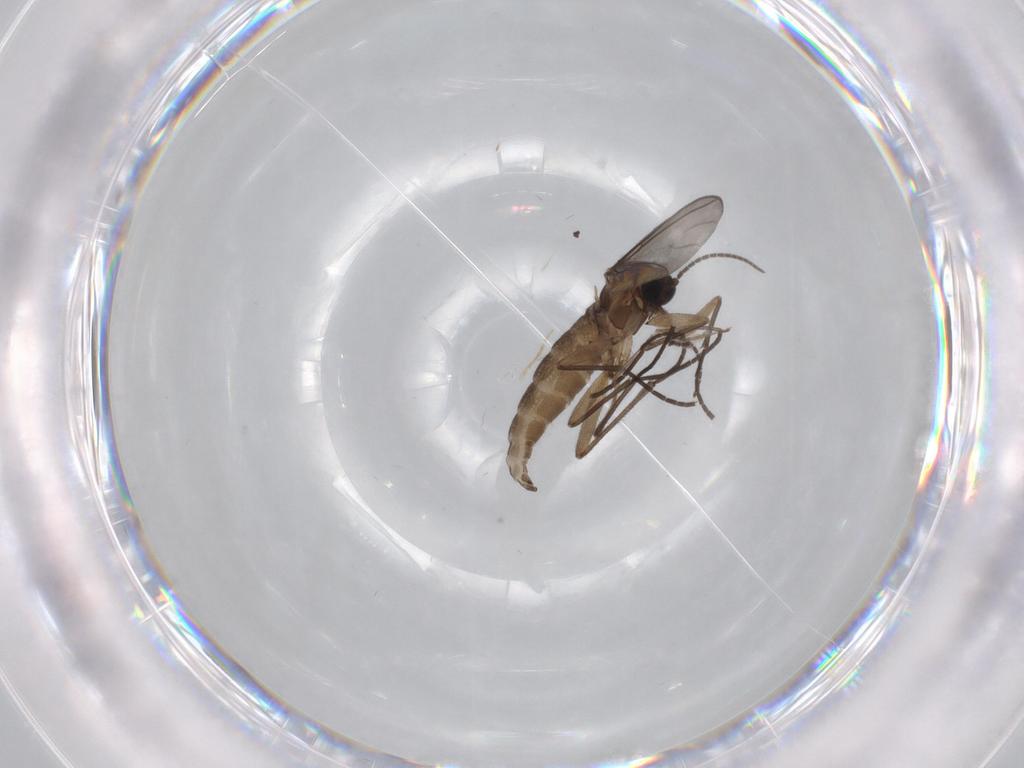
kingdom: Animalia
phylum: Arthropoda
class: Insecta
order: Diptera
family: Sciaridae
